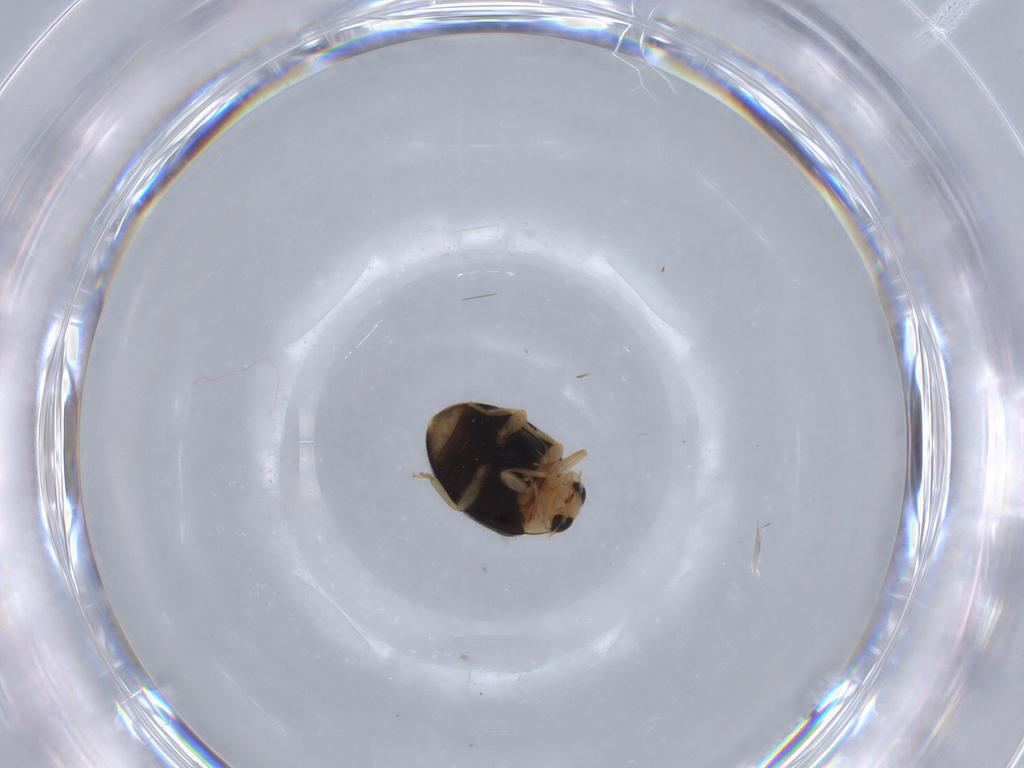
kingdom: Animalia
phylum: Arthropoda
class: Insecta
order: Coleoptera
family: Coccinellidae
